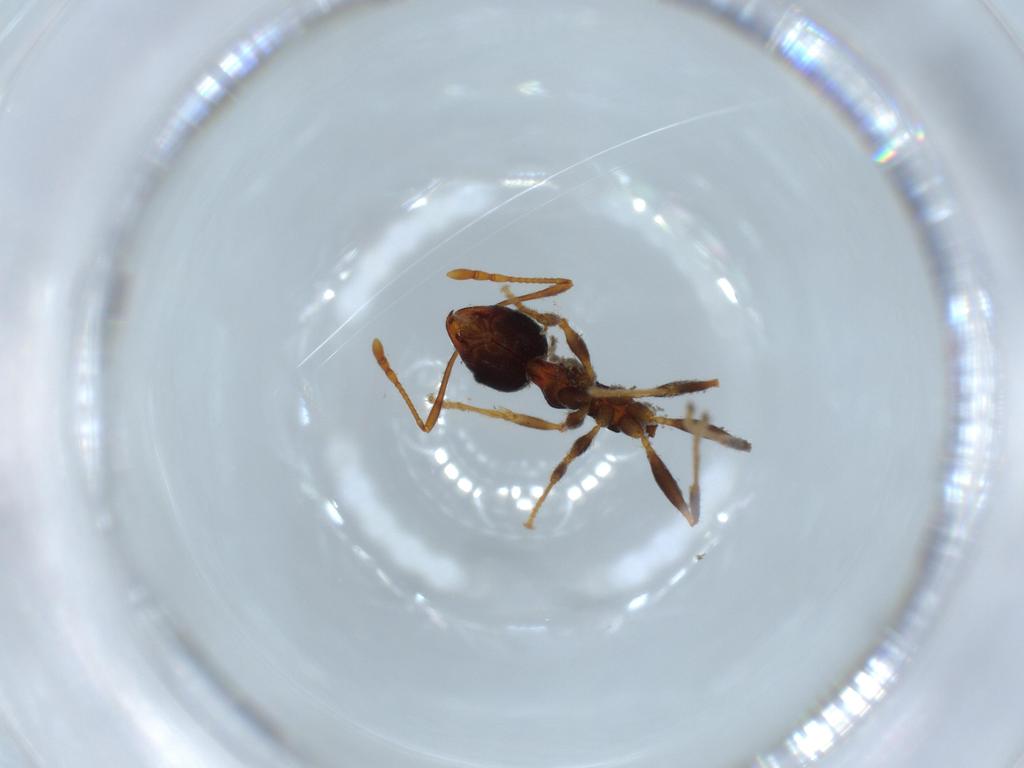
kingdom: Animalia
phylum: Arthropoda
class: Insecta
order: Hymenoptera
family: Formicidae
